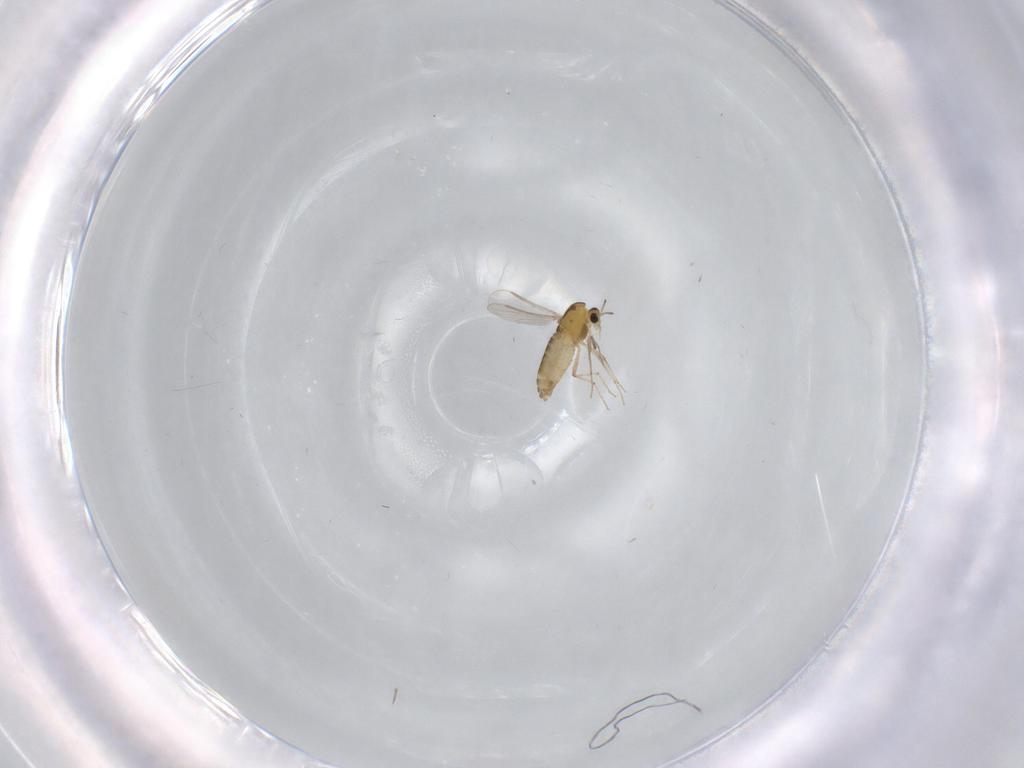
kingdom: Animalia
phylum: Arthropoda
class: Insecta
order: Diptera
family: Chironomidae
